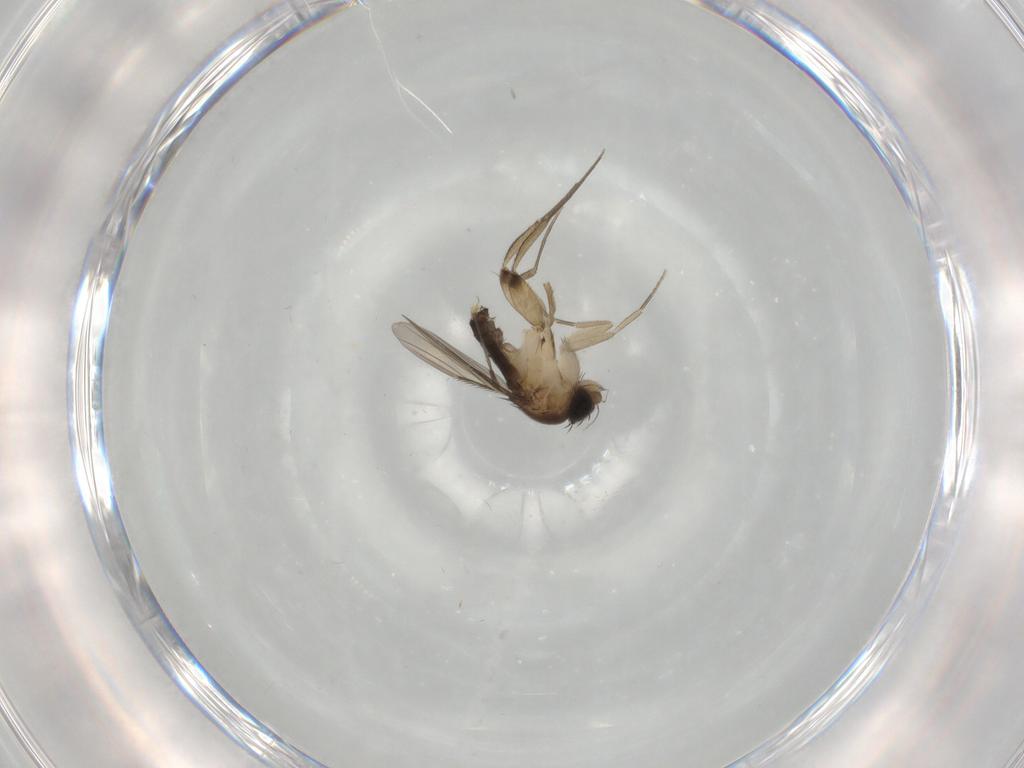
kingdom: Animalia
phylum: Arthropoda
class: Insecta
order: Diptera
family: Phoridae
